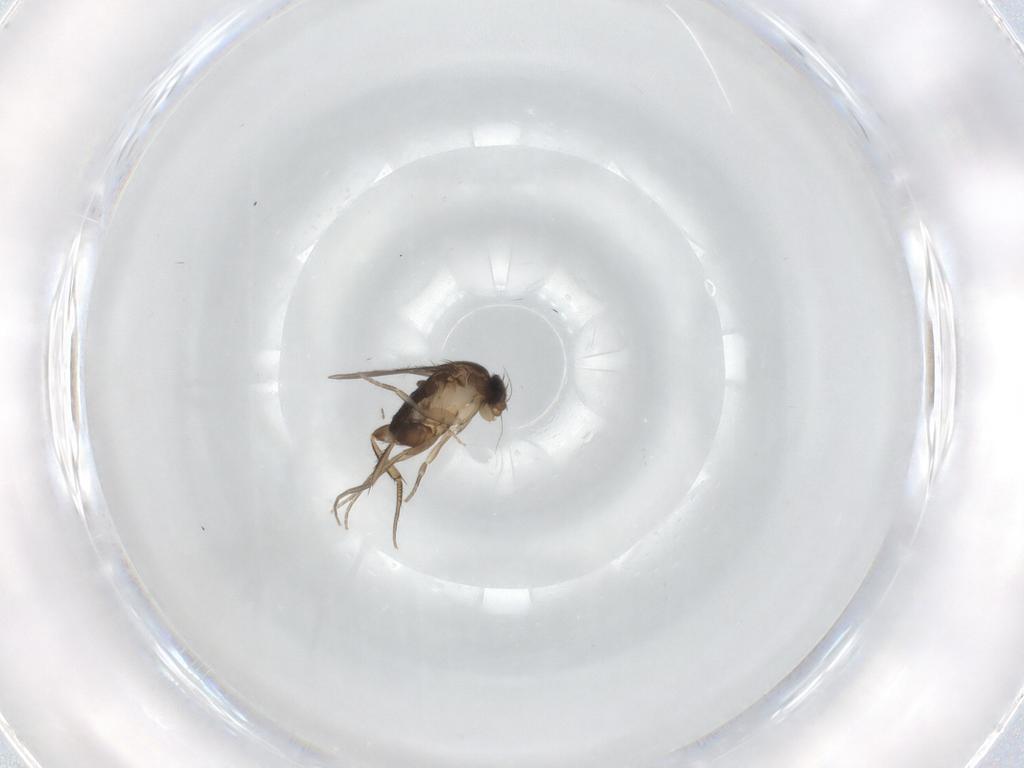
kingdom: Animalia
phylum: Arthropoda
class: Insecta
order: Diptera
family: Phoridae
